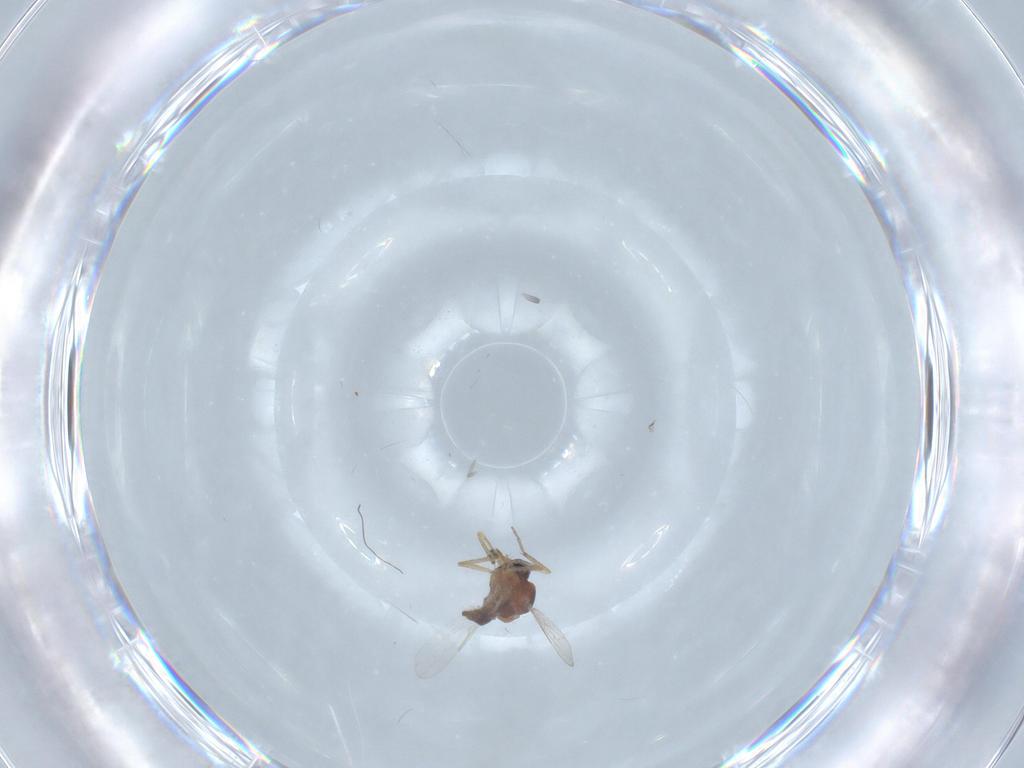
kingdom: Animalia
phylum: Arthropoda
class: Insecta
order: Diptera
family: Ceratopogonidae
